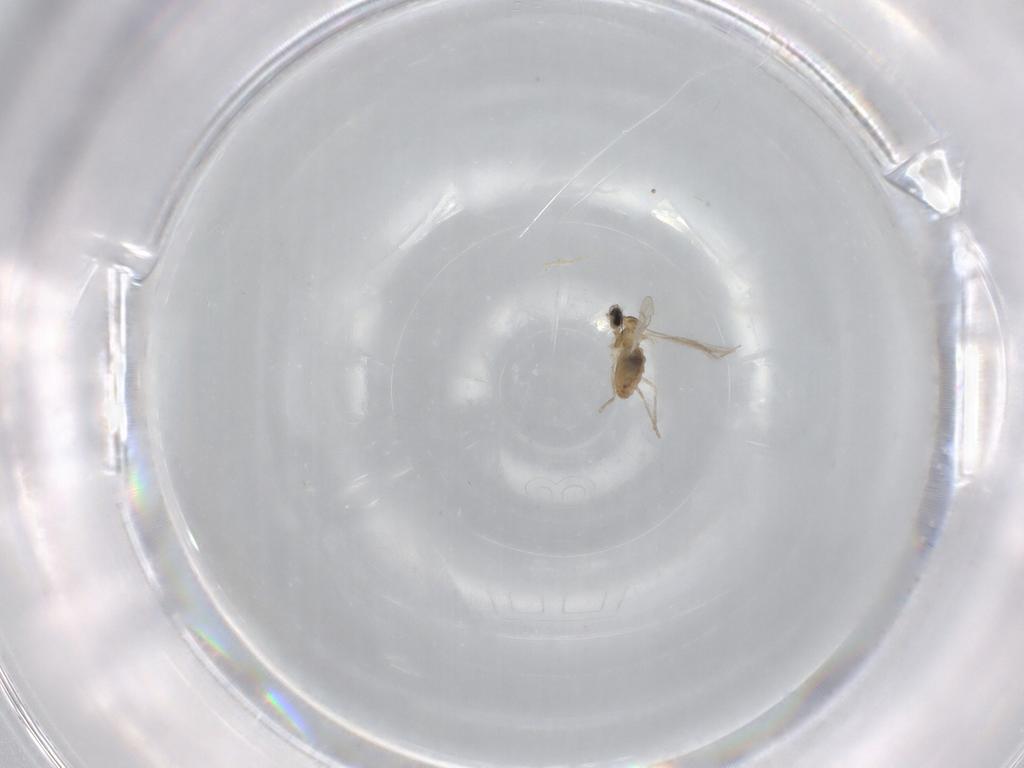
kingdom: Animalia
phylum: Arthropoda
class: Insecta
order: Diptera
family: Cecidomyiidae
